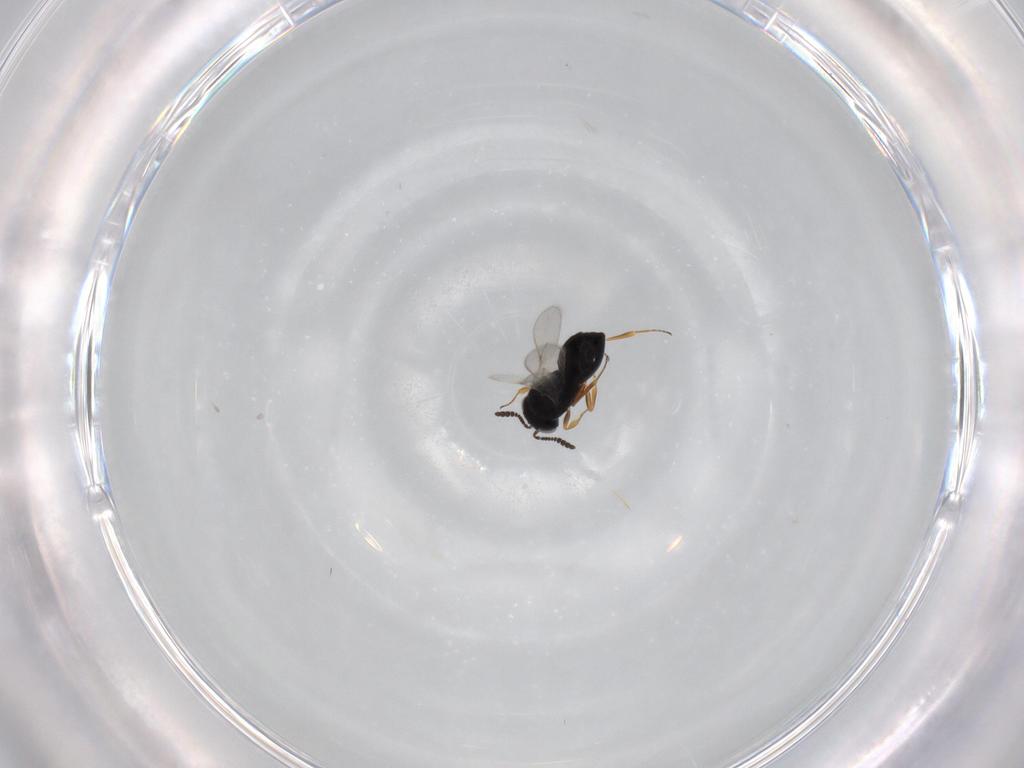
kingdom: Animalia
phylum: Arthropoda
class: Insecta
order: Hymenoptera
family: Scelionidae
